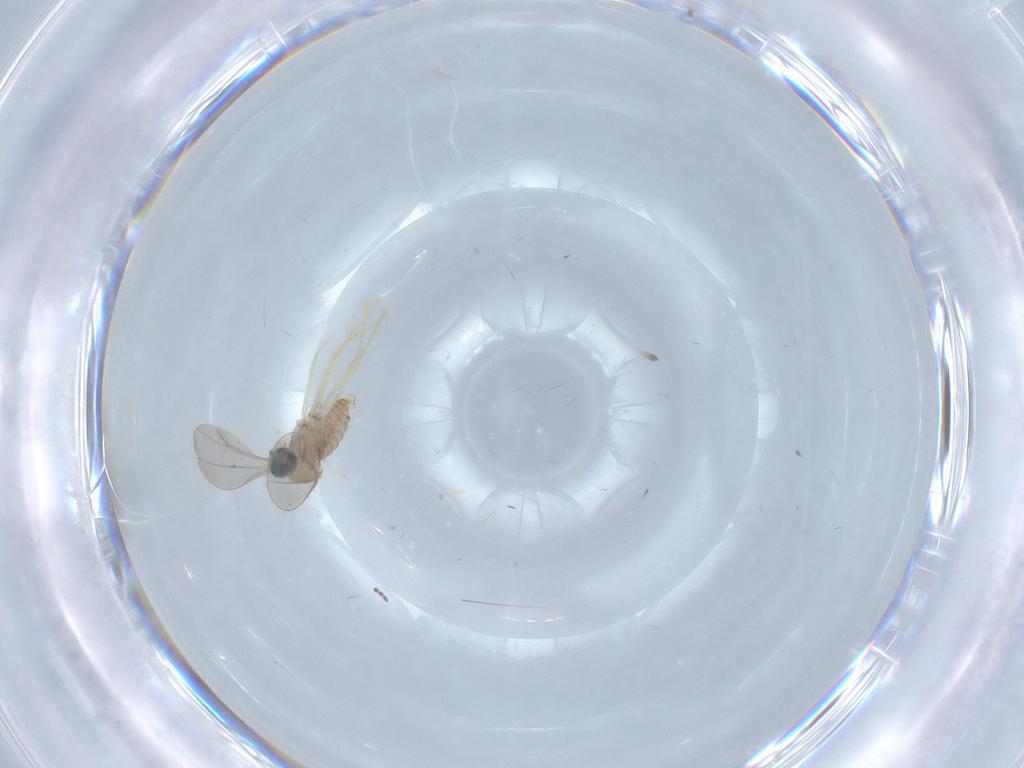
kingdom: Animalia
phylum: Arthropoda
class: Insecta
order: Diptera
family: Cecidomyiidae
